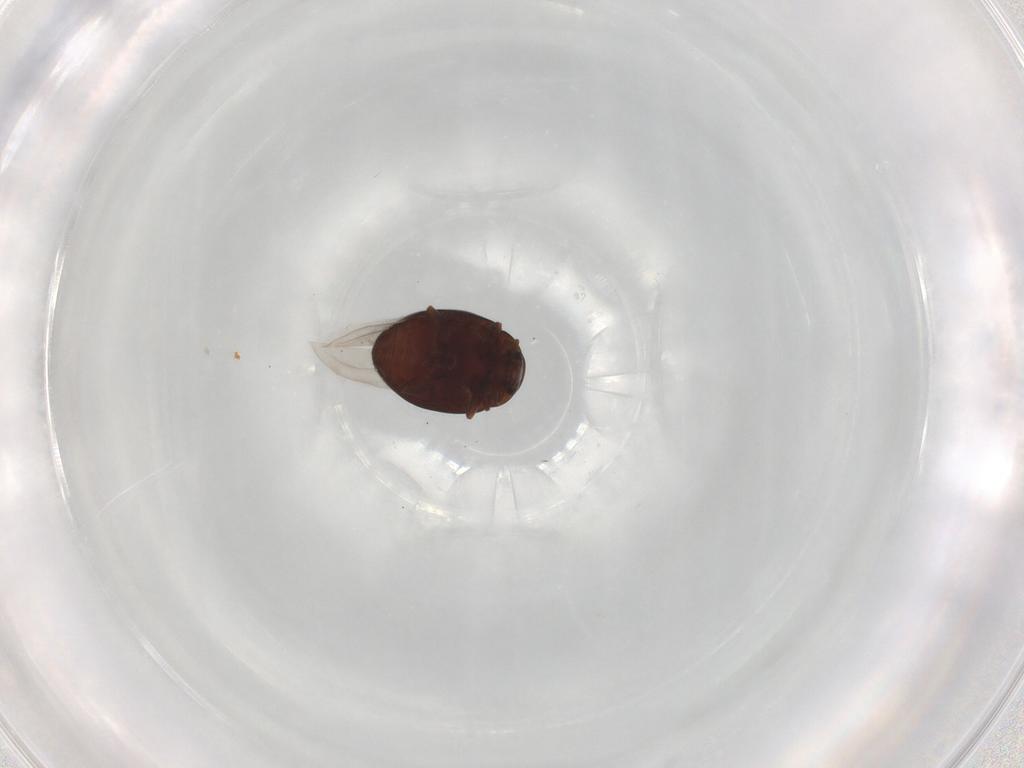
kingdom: Animalia
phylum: Arthropoda
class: Insecta
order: Coleoptera
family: Coccinellidae
